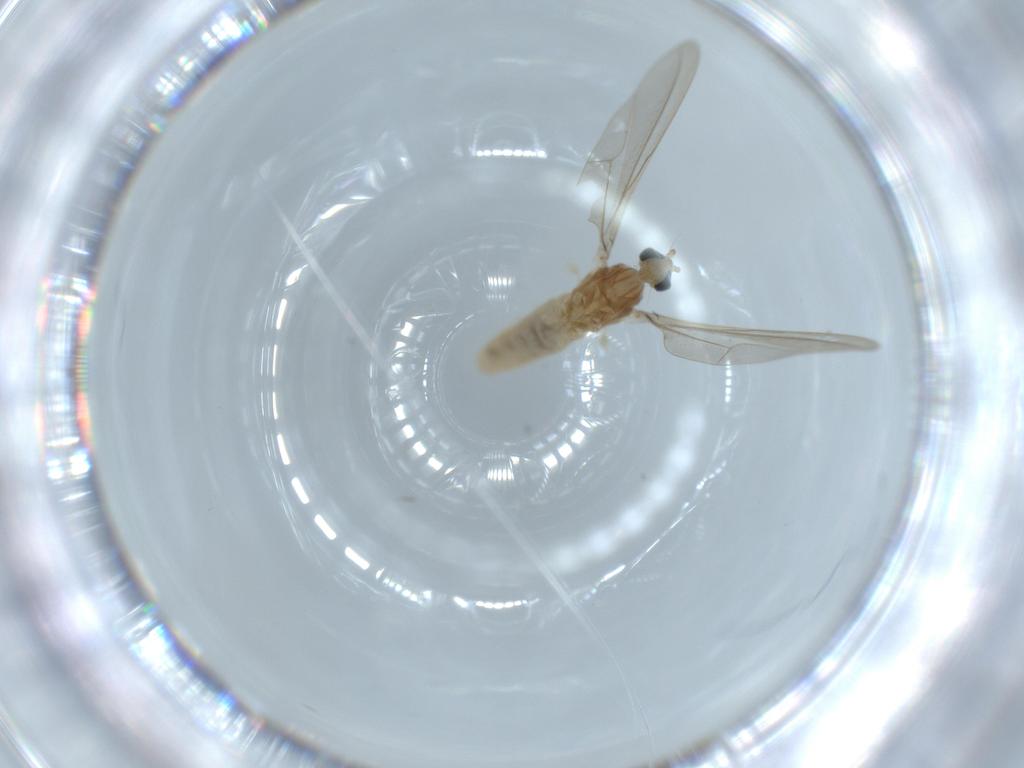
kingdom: Animalia
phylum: Arthropoda
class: Insecta
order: Diptera
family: Cecidomyiidae
